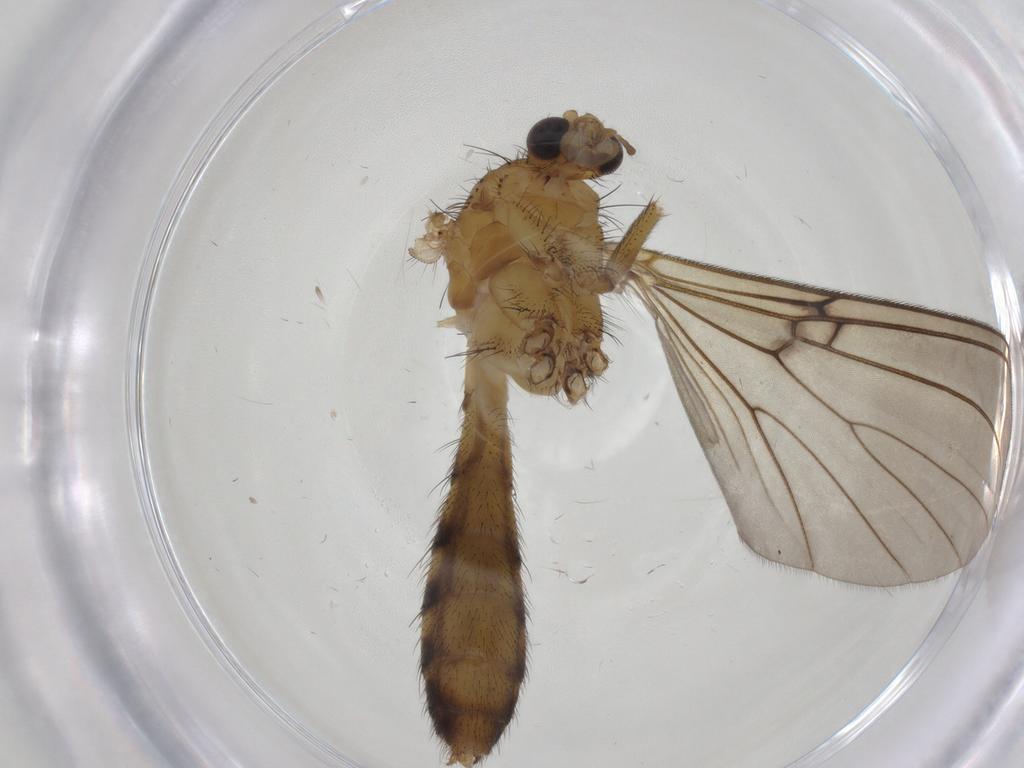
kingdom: Animalia
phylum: Arthropoda
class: Insecta
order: Diptera
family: Mycetophilidae
